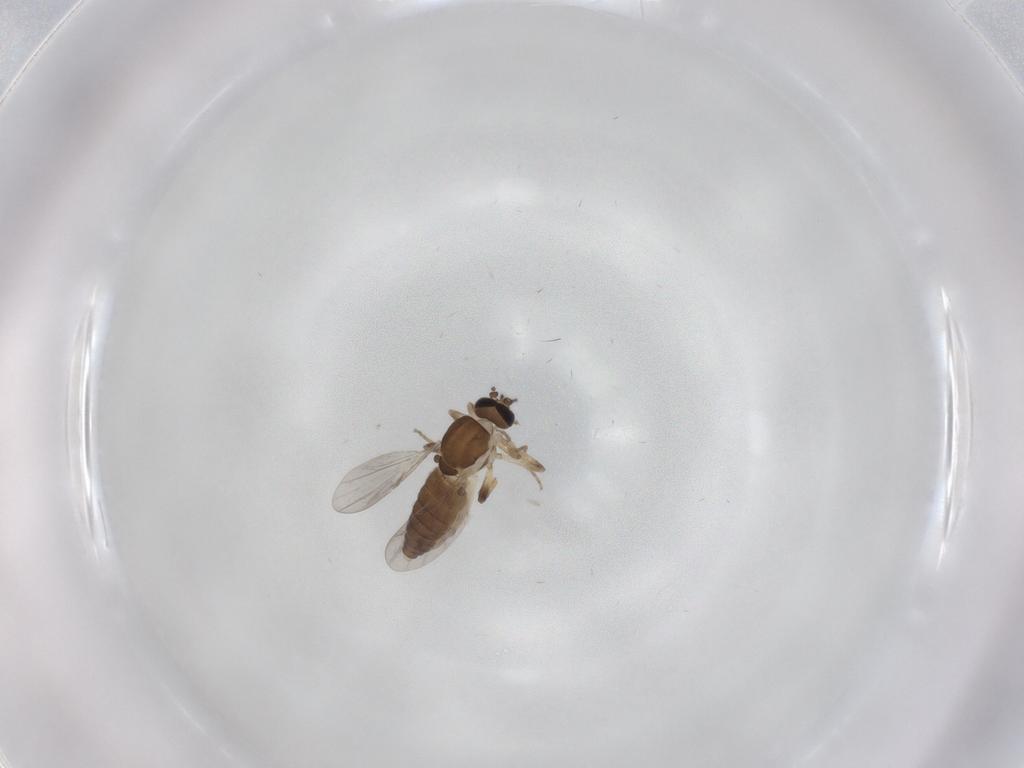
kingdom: Animalia
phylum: Arthropoda
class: Insecta
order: Diptera
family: Ceratopogonidae
